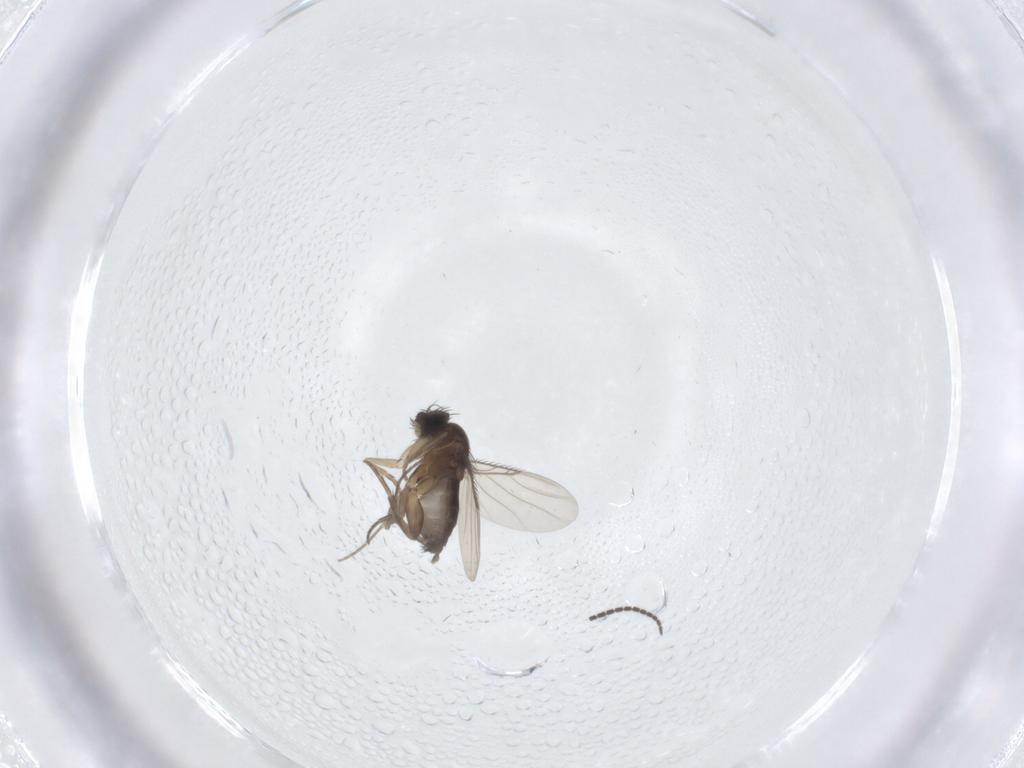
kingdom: Animalia
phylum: Arthropoda
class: Insecta
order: Diptera
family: Sciaridae
